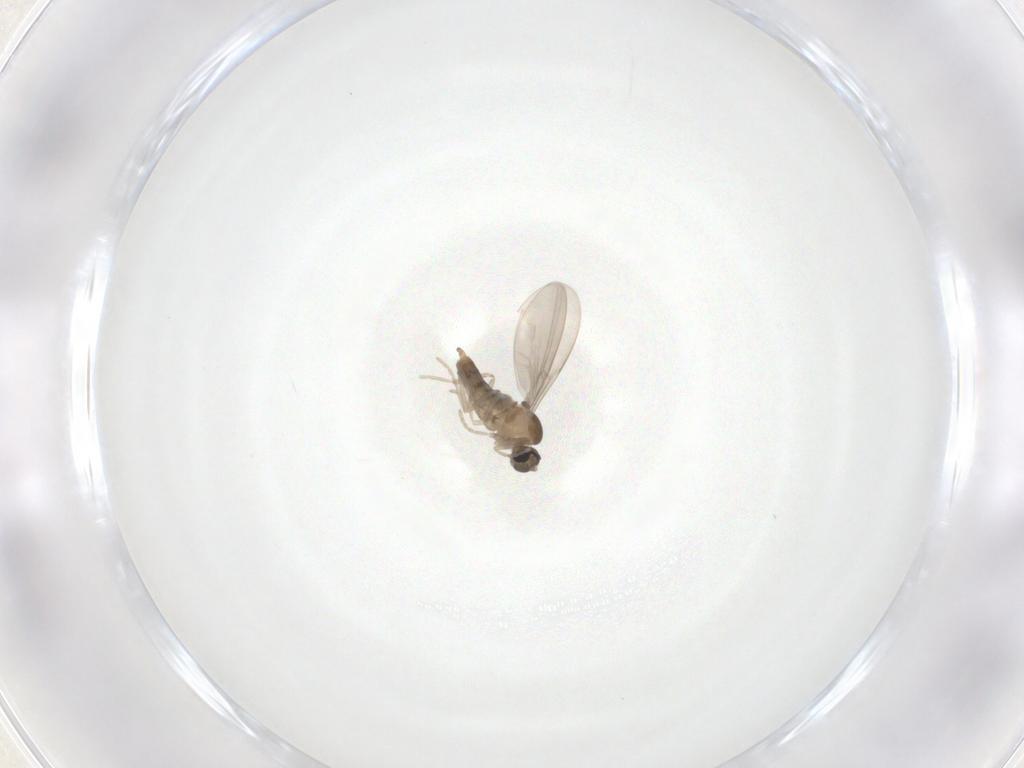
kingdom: Animalia
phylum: Arthropoda
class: Insecta
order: Diptera
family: Cecidomyiidae
